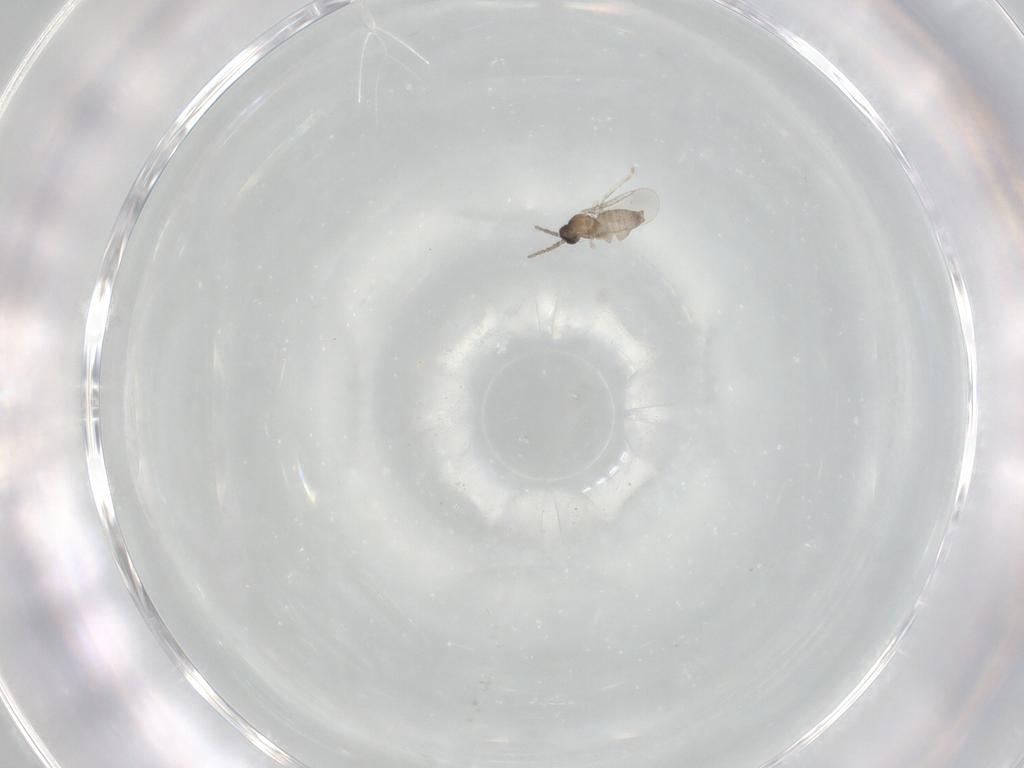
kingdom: Animalia
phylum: Arthropoda
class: Insecta
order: Diptera
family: Cecidomyiidae
